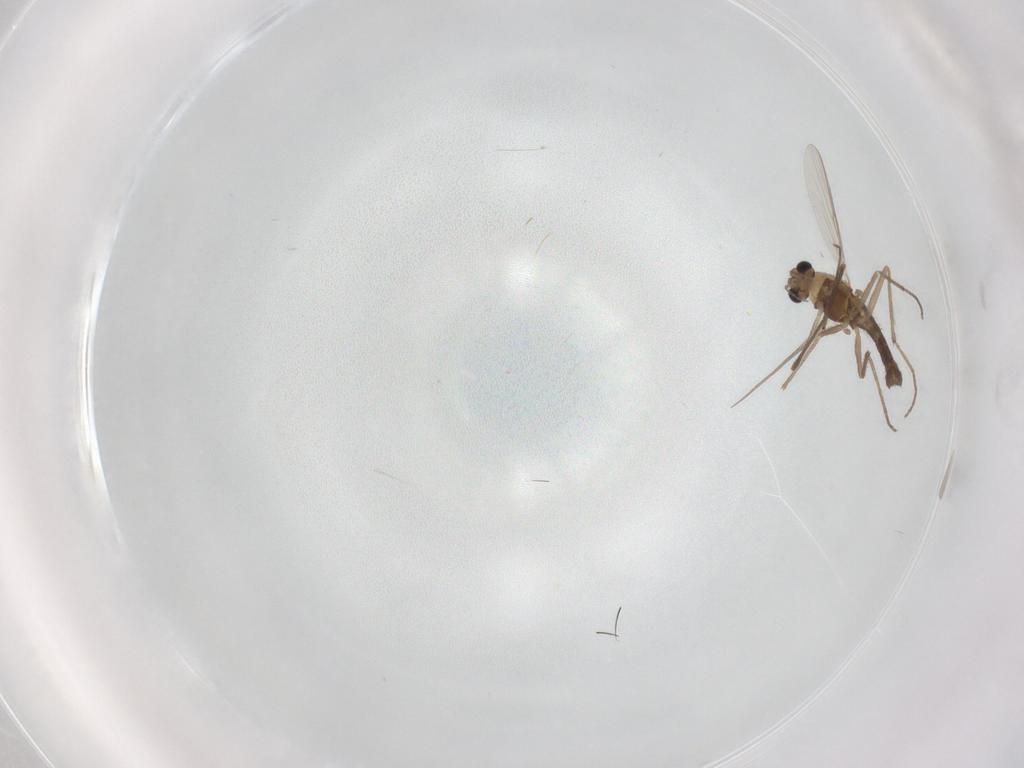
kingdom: Animalia
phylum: Arthropoda
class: Insecta
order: Diptera
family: Chironomidae
